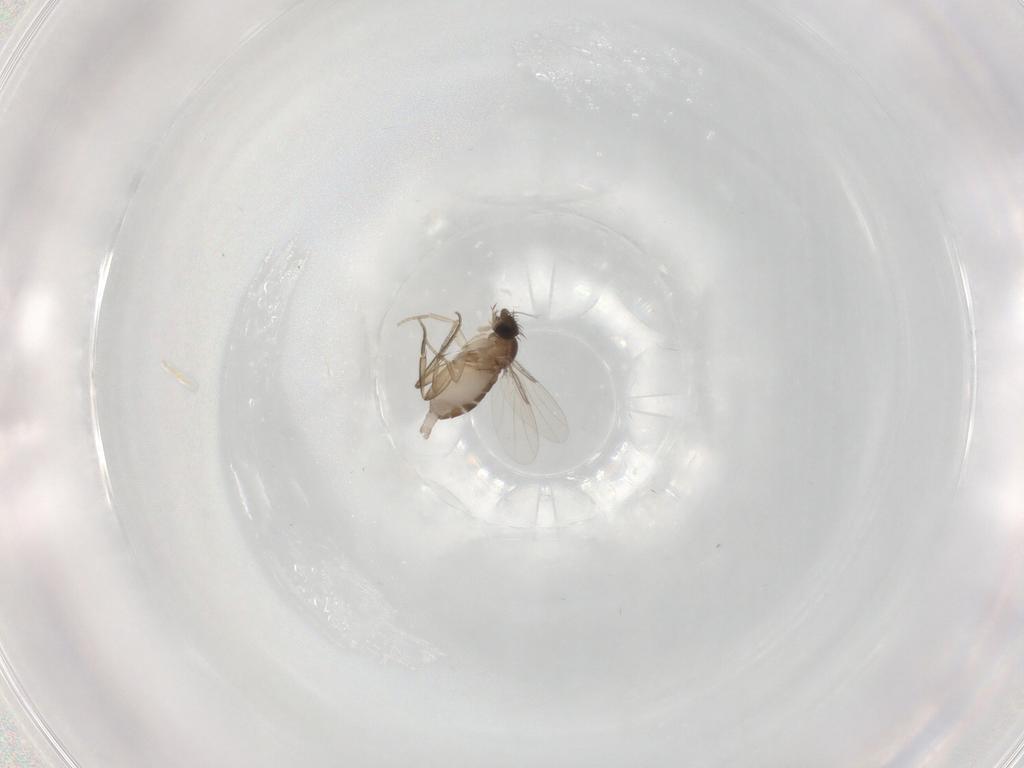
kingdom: Animalia
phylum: Arthropoda
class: Insecta
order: Diptera
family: Phoridae
